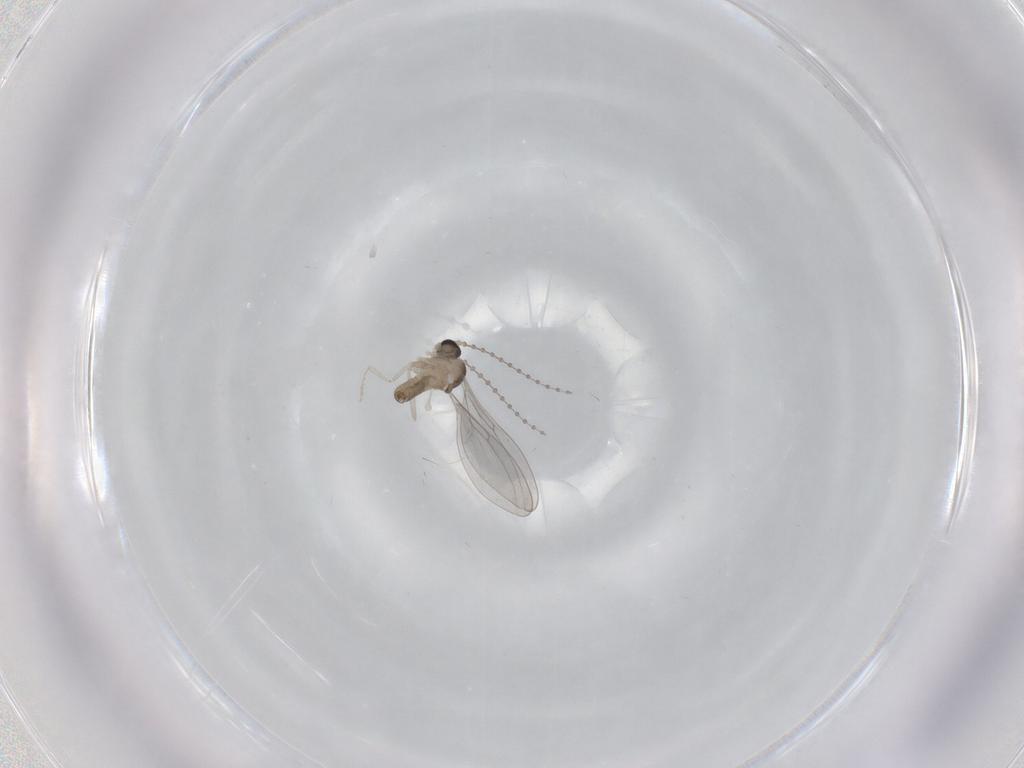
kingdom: Animalia
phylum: Arthropoda
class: Insecta
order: Diptera
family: Cecidomyiidae
